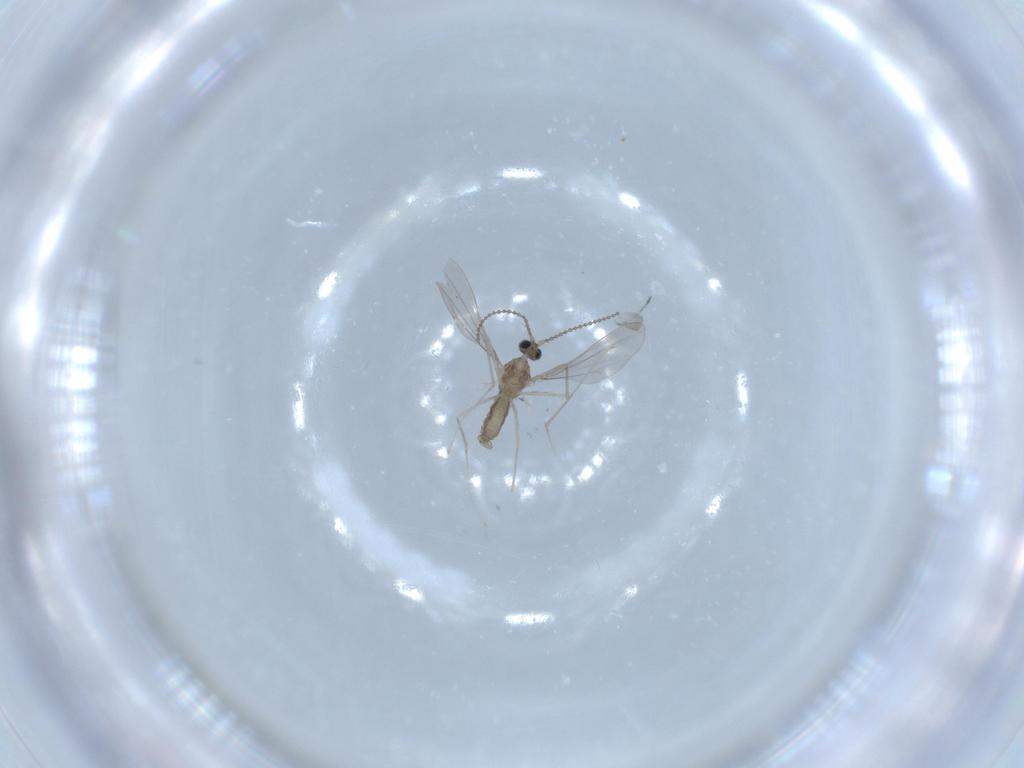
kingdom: Animalia
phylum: Arthropoda
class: Insecta
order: Diptera
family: Cecidomyiidae
